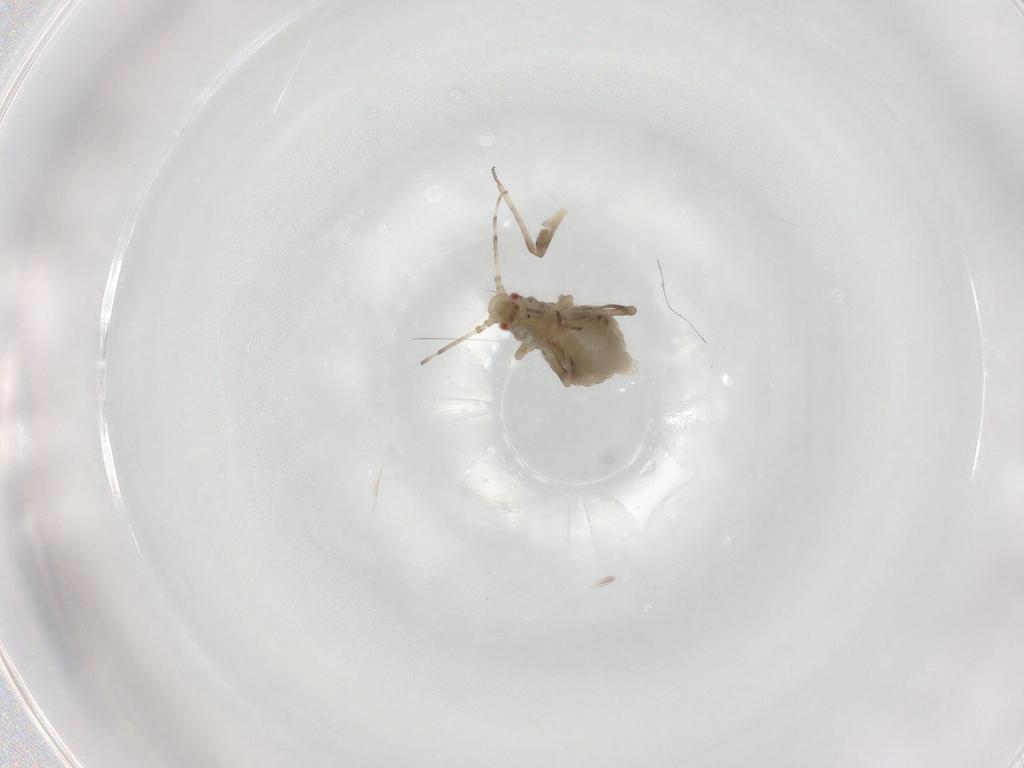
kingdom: Animalia
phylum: Arthropoda
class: Insecta
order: Hemiptera
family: Aphididae
